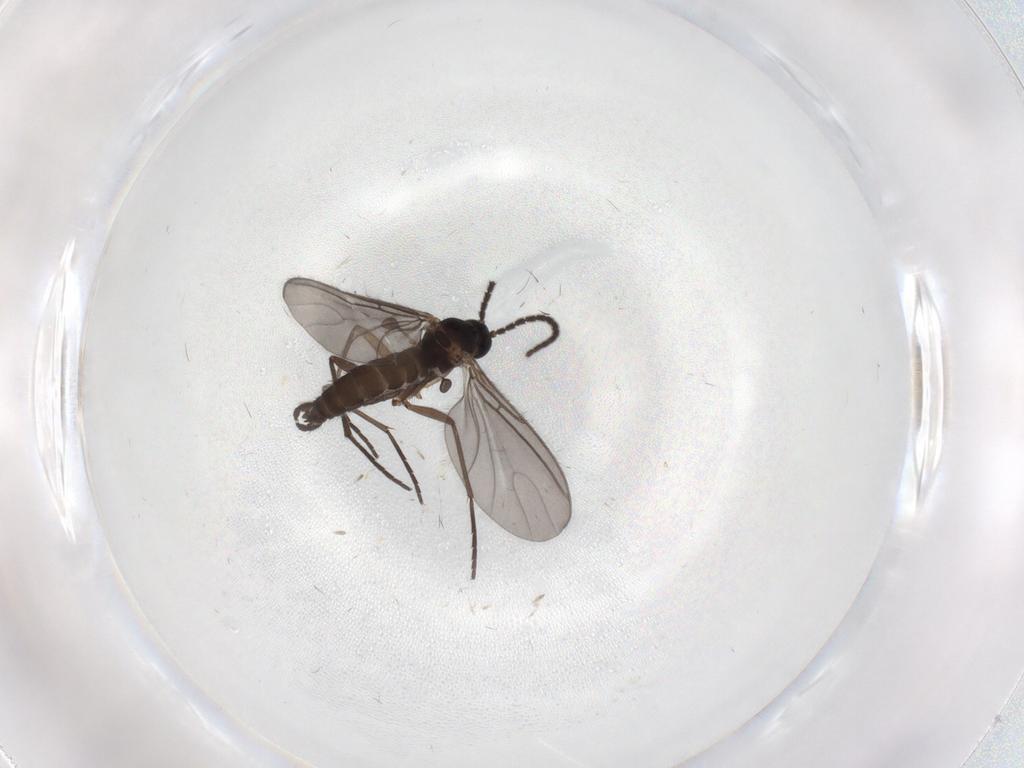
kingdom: Animalia
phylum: Arthropoda
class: Insecta
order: Diptera
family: Sciaridae
